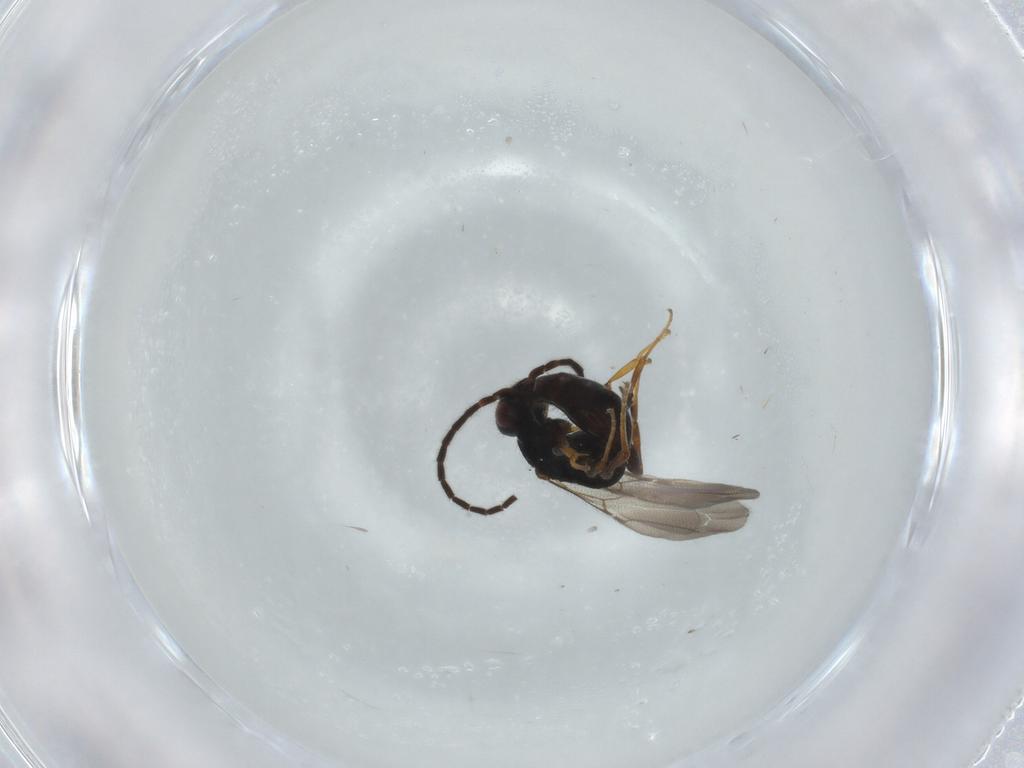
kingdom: Animalia
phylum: Arthropoda
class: Insecta
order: Hymenoptera
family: Bethylidae
